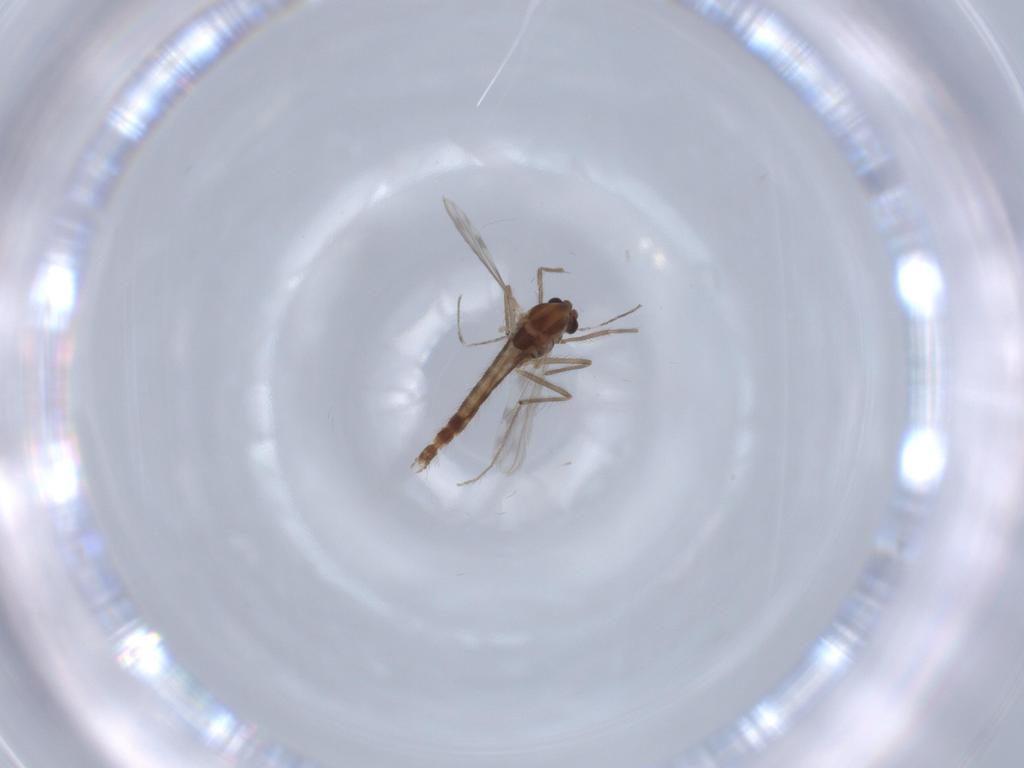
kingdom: Animalia
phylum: Arthropoda
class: Insecta
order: Diptera
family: Chironomidae
